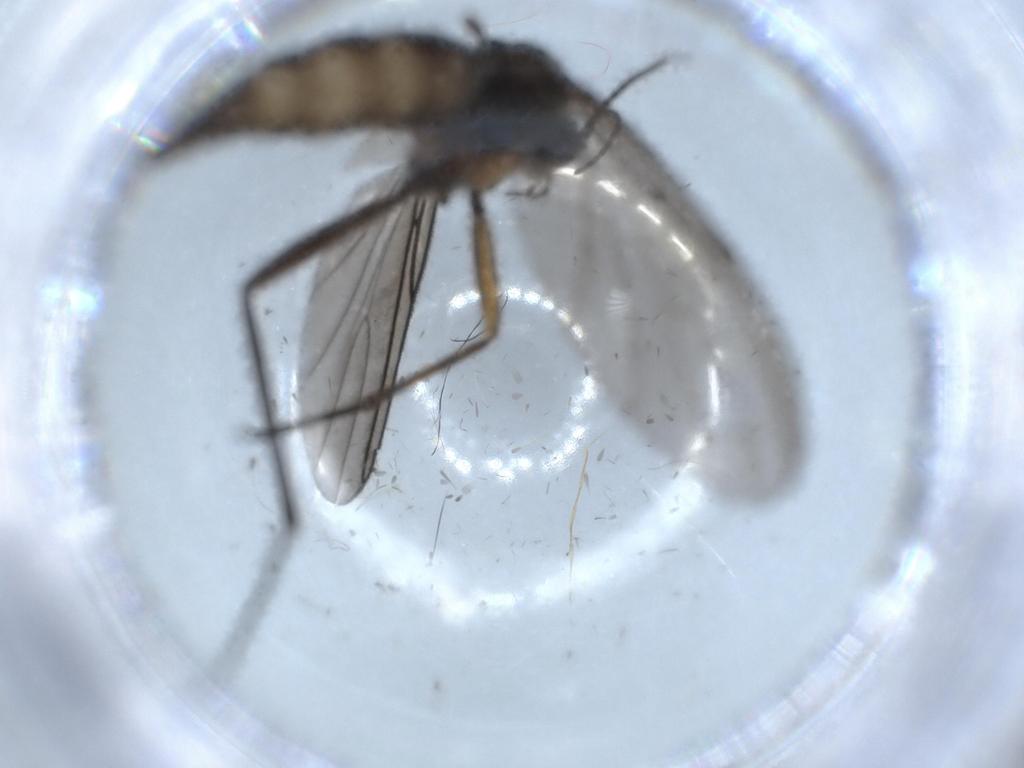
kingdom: Animalia
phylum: Arthropoda
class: Insecta
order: Diptera
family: Sciaridae
